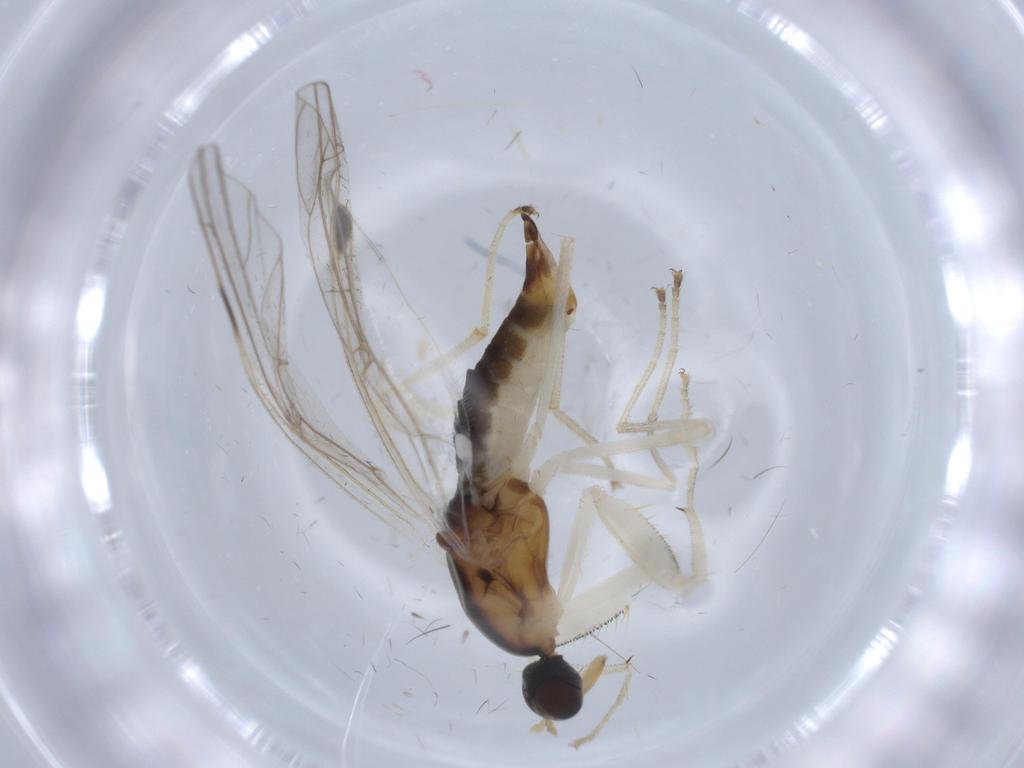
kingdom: Animalia
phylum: Arthropoda
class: Insecta
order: Diptera
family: Empididae
